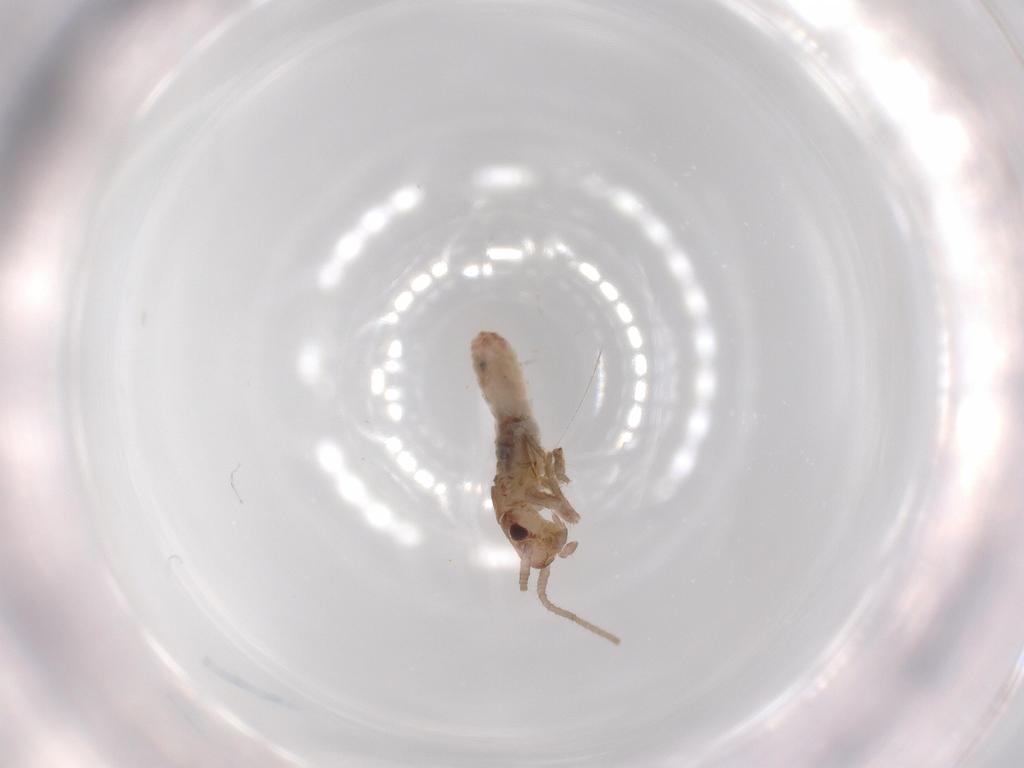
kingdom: Animalia
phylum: Arthropoda
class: Insecta
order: Orthoptera
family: Mogoplistidae
